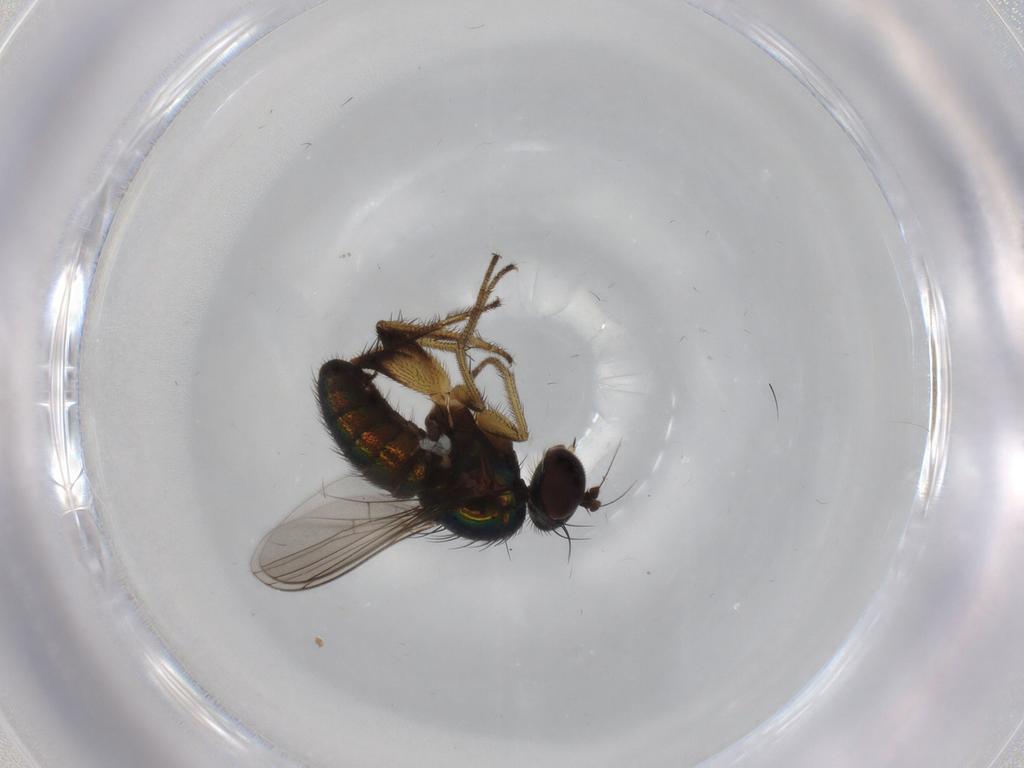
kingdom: Animalia
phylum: Arthropoda
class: Insecta
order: Diptera
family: Dolichopodidae
